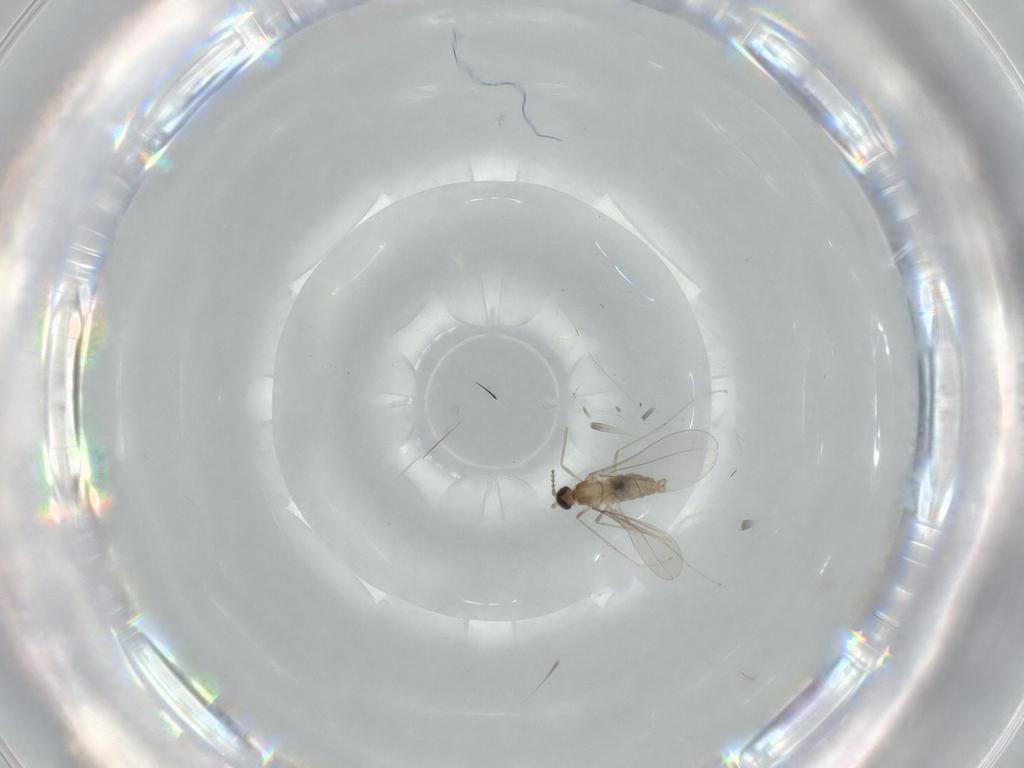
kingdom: Animalia
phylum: Arthropoda
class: Insecta
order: Diptera
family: Cecidomyiidae
